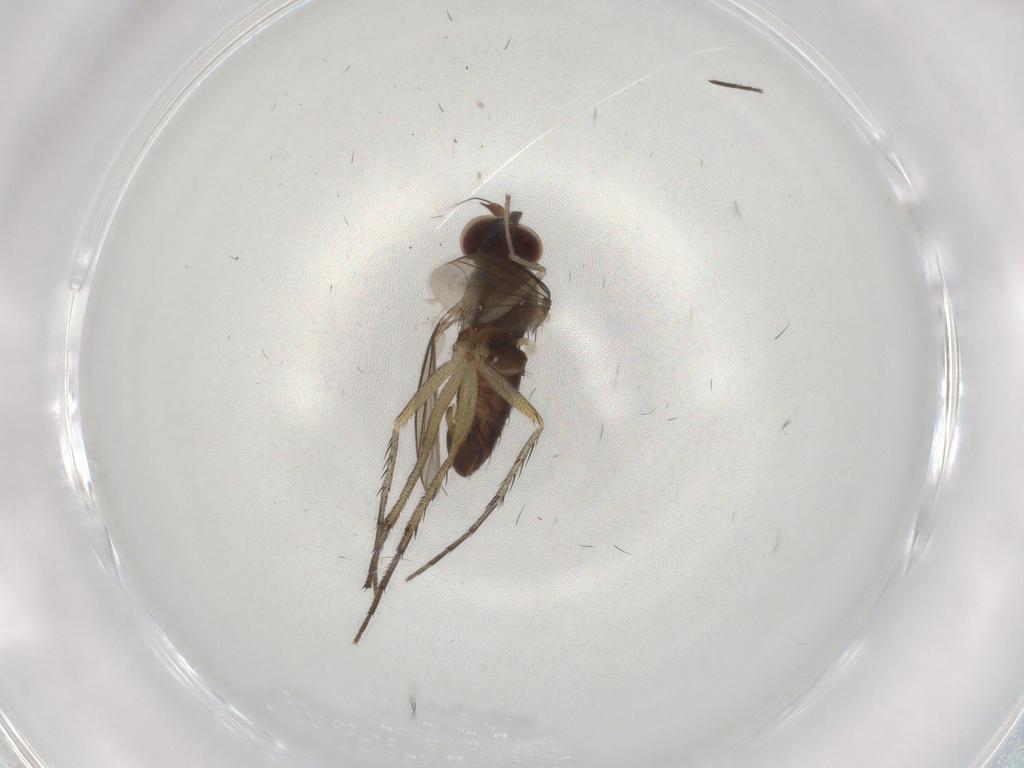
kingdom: Animalia
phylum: Arthropoda
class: Insecta
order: Diptera
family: Dolichopodidae
